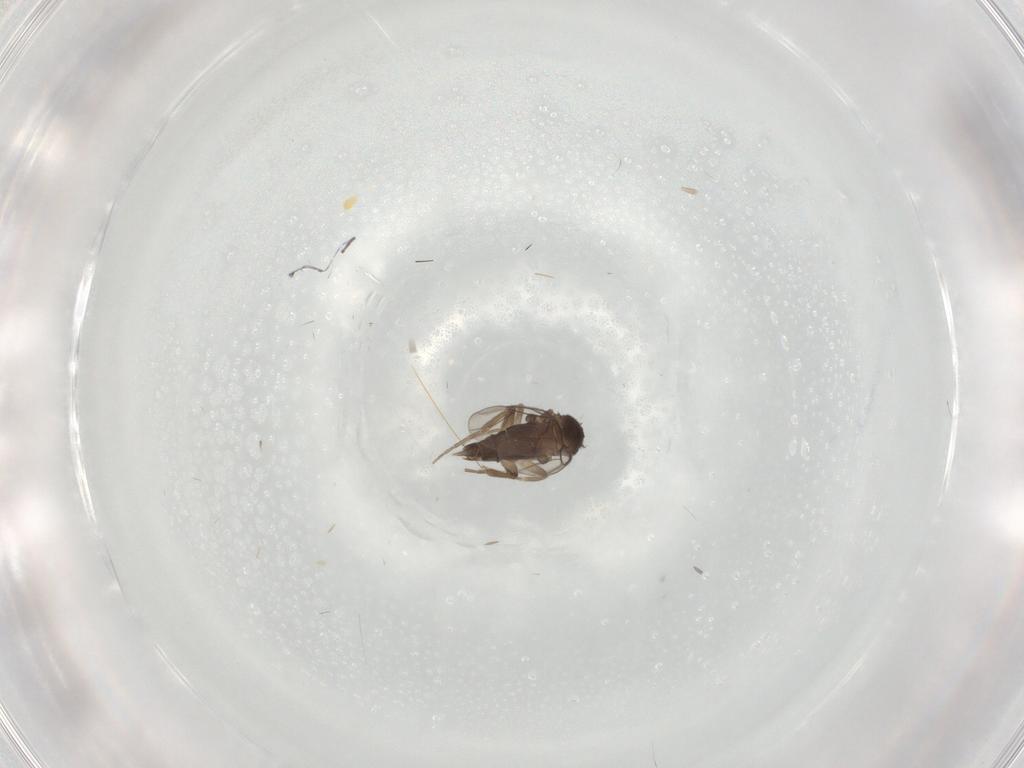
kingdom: Animalia
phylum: Arthropoda
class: Insecta
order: Diptera
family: Phoridae
